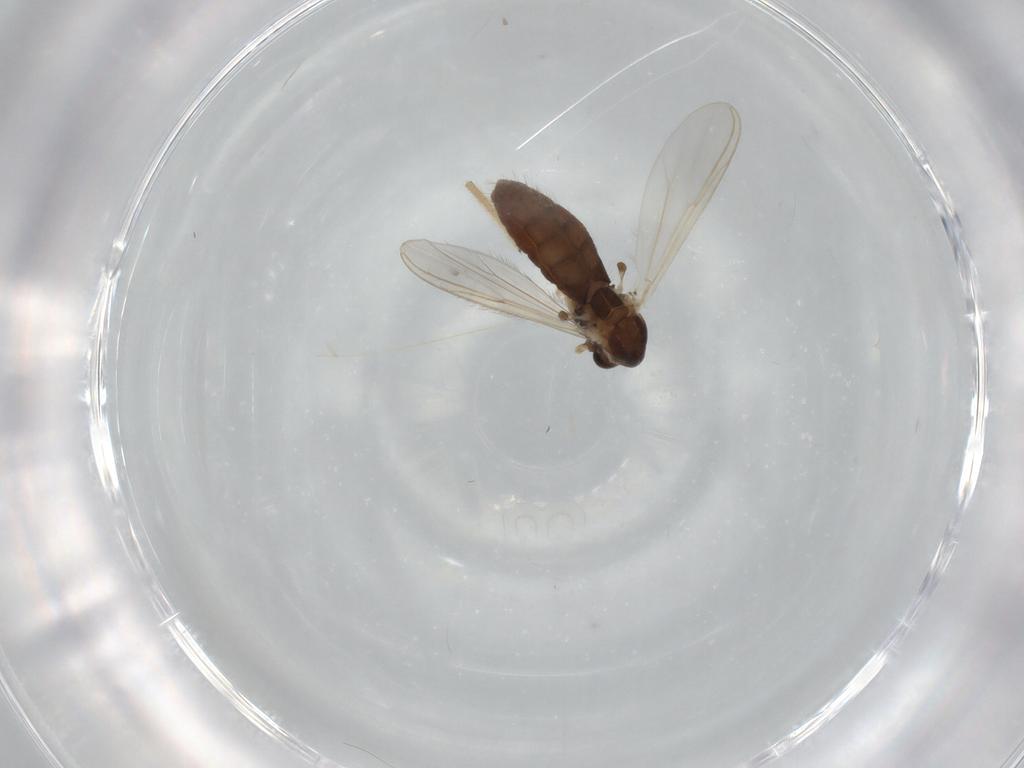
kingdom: Animalia
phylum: Arthropoda
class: Insecta
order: Diptera
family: Chironomidae
